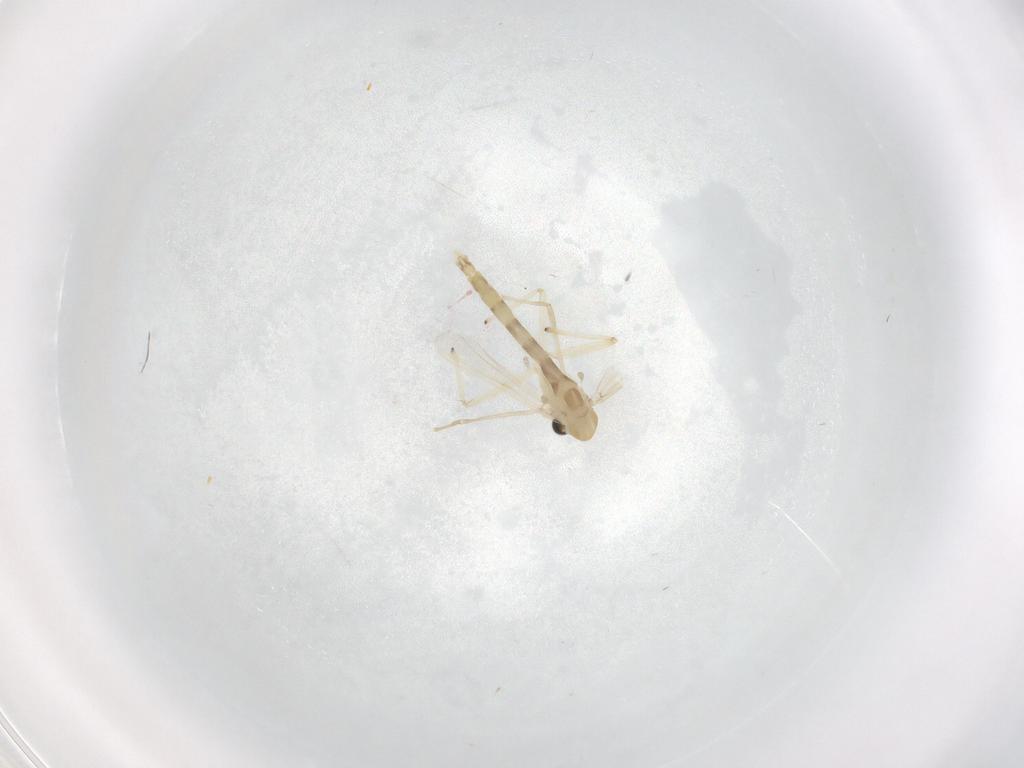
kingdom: Animalia
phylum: Arthropoda
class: Insecta
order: Diptera
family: Chironomidae
